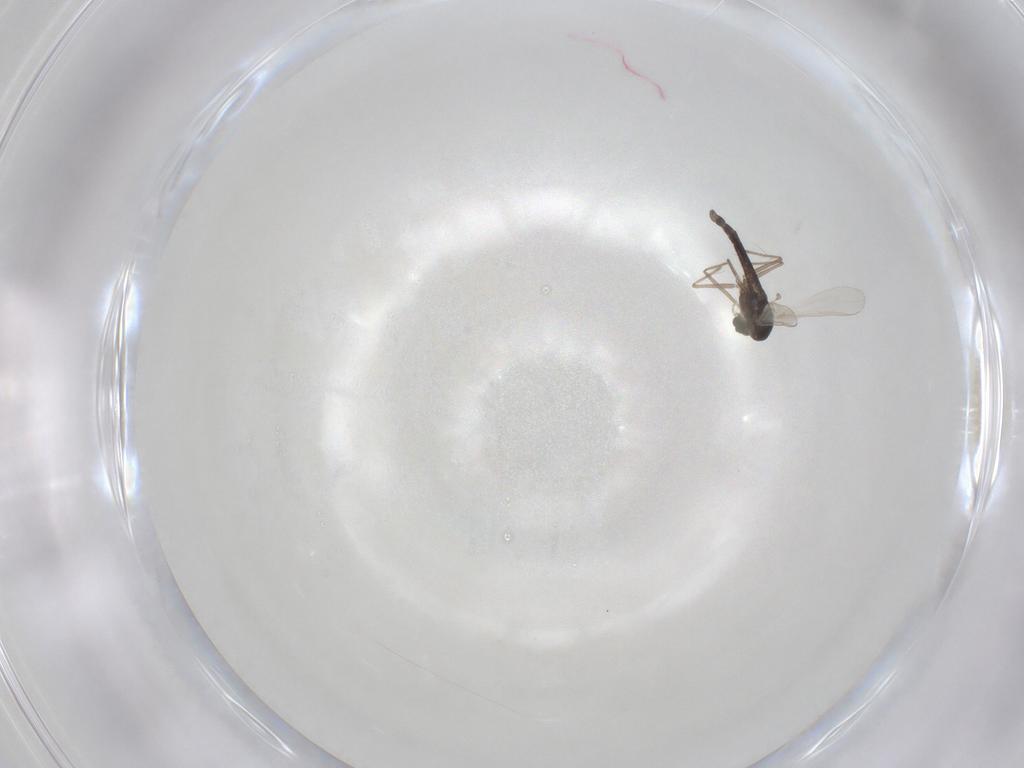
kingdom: Animalia
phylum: Arthropoda
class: Insecta
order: Diptera
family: Chironomidae
